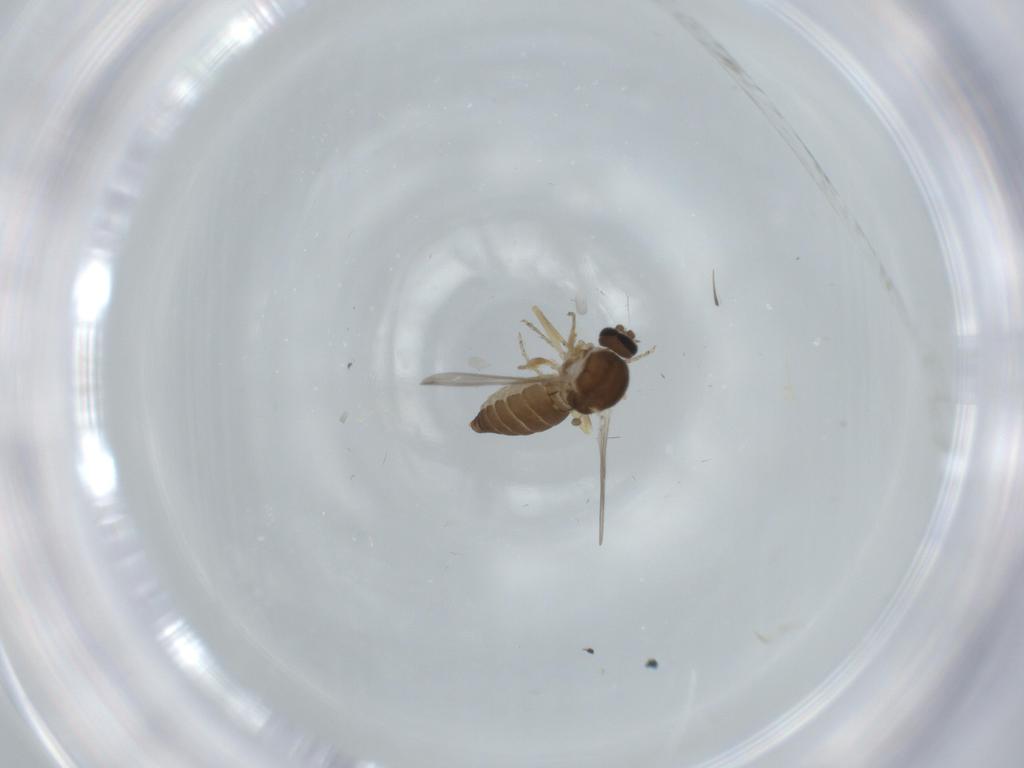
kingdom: Animalia
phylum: Arthropoda
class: Insecta
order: Diptera
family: Ceratopogonidae
